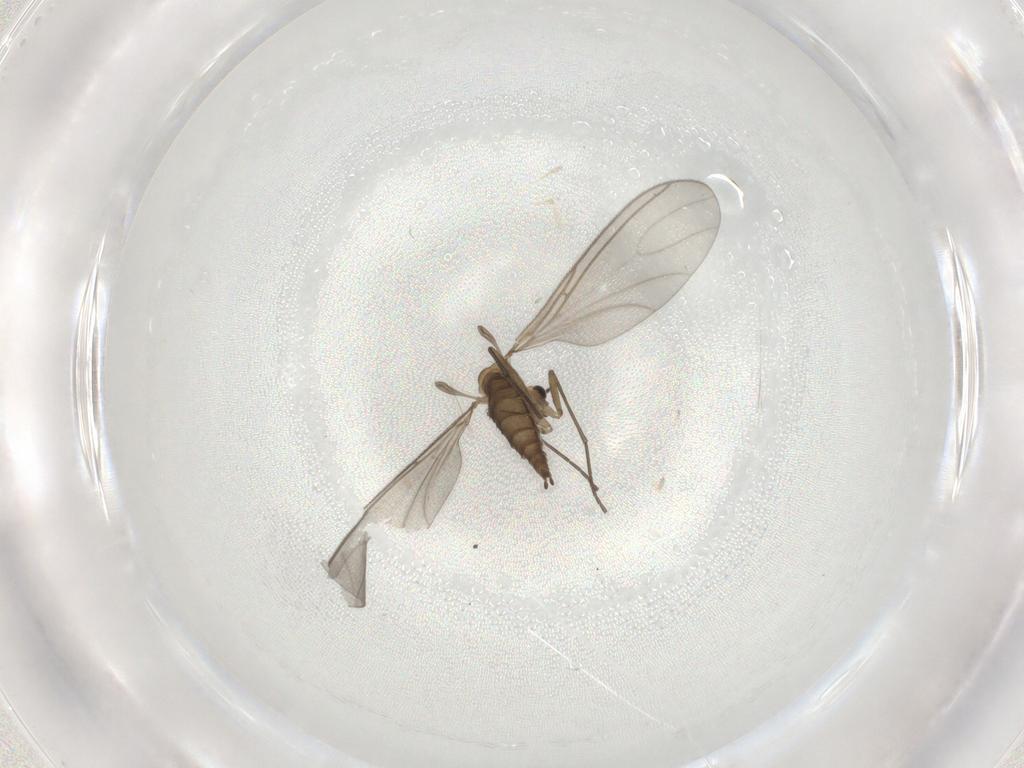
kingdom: Animalia
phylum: Arthropoda
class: Insecta
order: Diptera
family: Sciaridae
